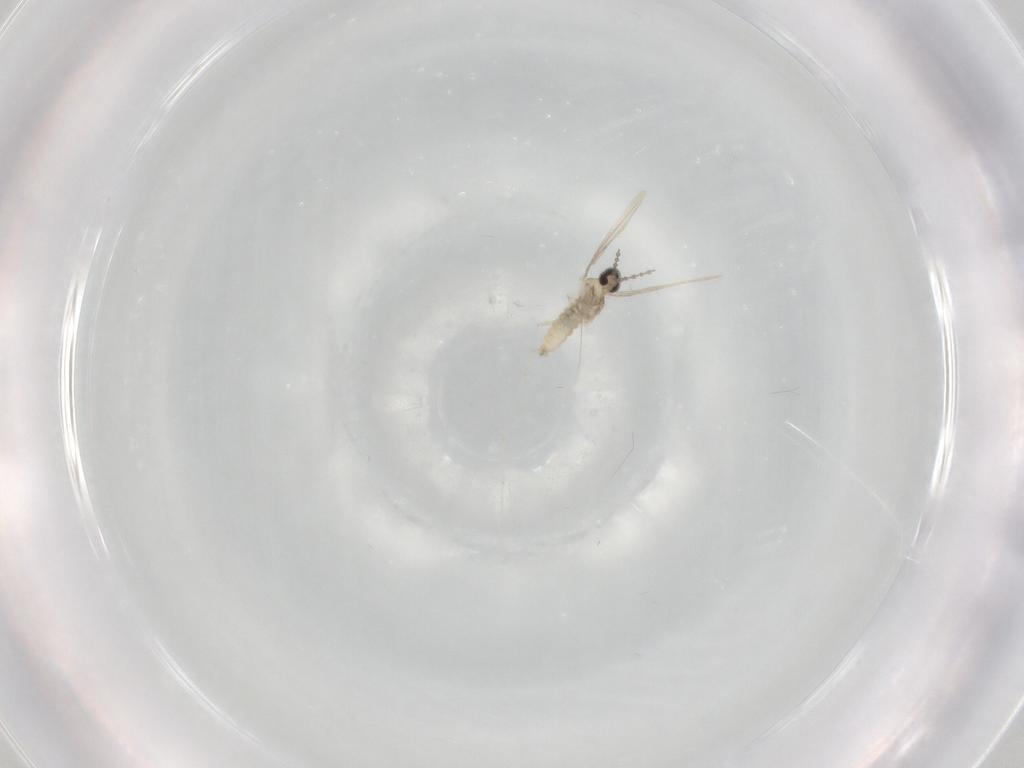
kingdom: Animalia
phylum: Arthropoda
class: Insecta
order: Diptera
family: Cecidomyiidae
